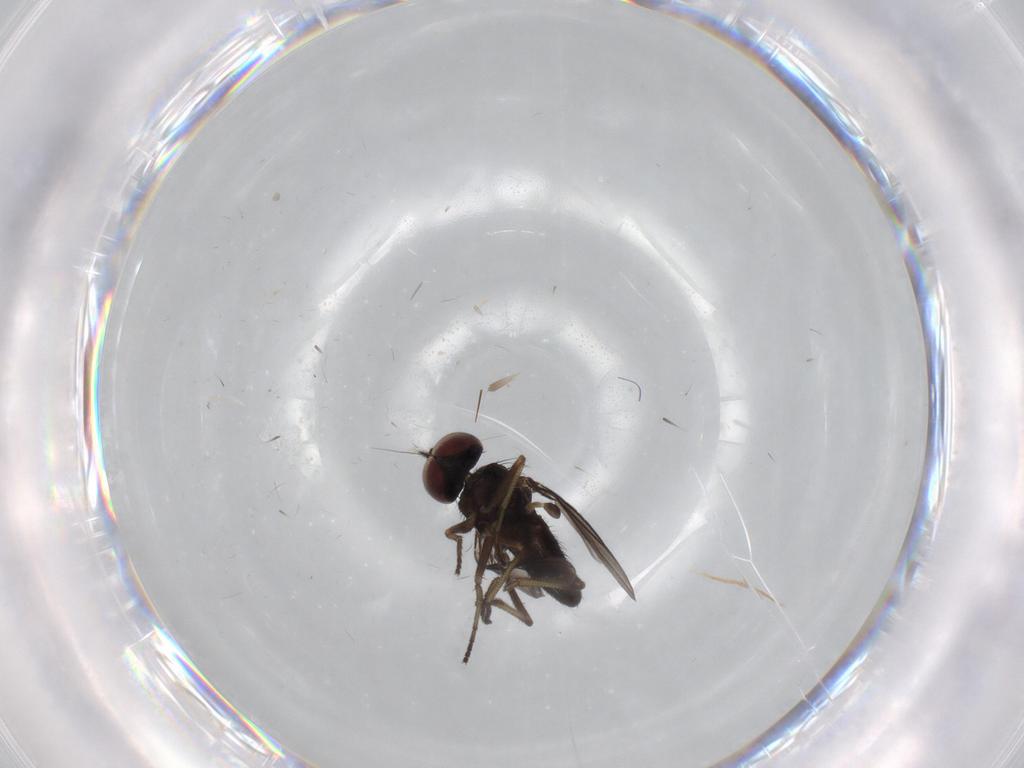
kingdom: Animalia
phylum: Arthropoda
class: Insecta
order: Diptera
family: Dolichopodidae
